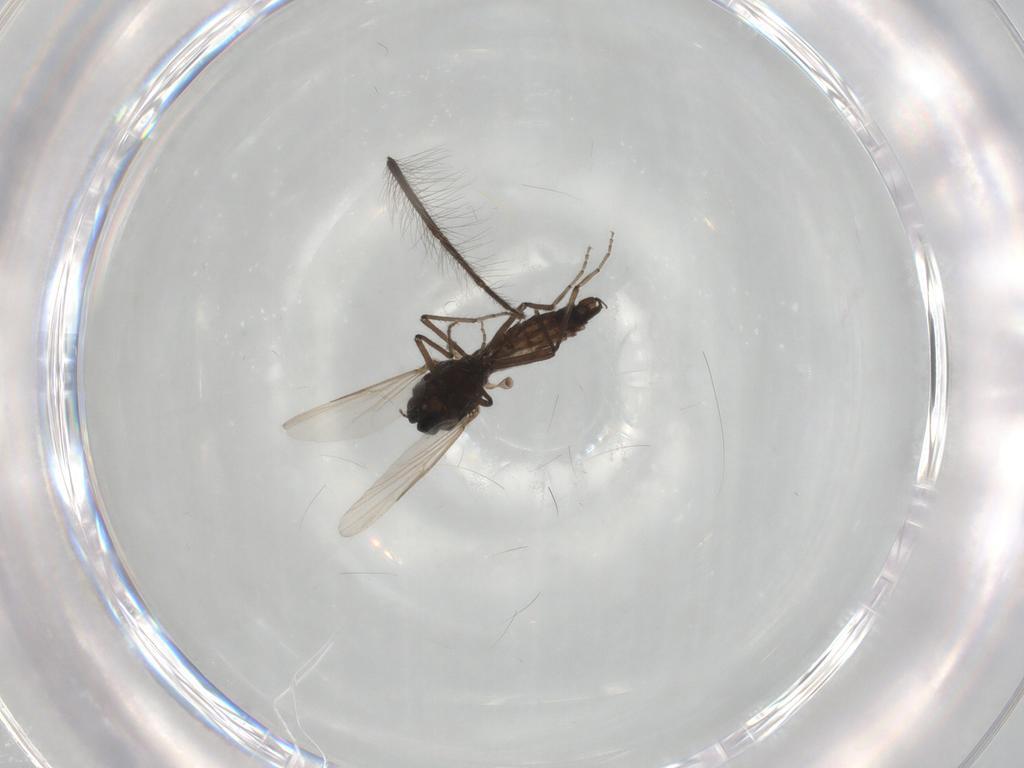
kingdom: Animalia
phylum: Arthropoda
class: Insecta
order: Diptera
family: Ceratopogonidae
